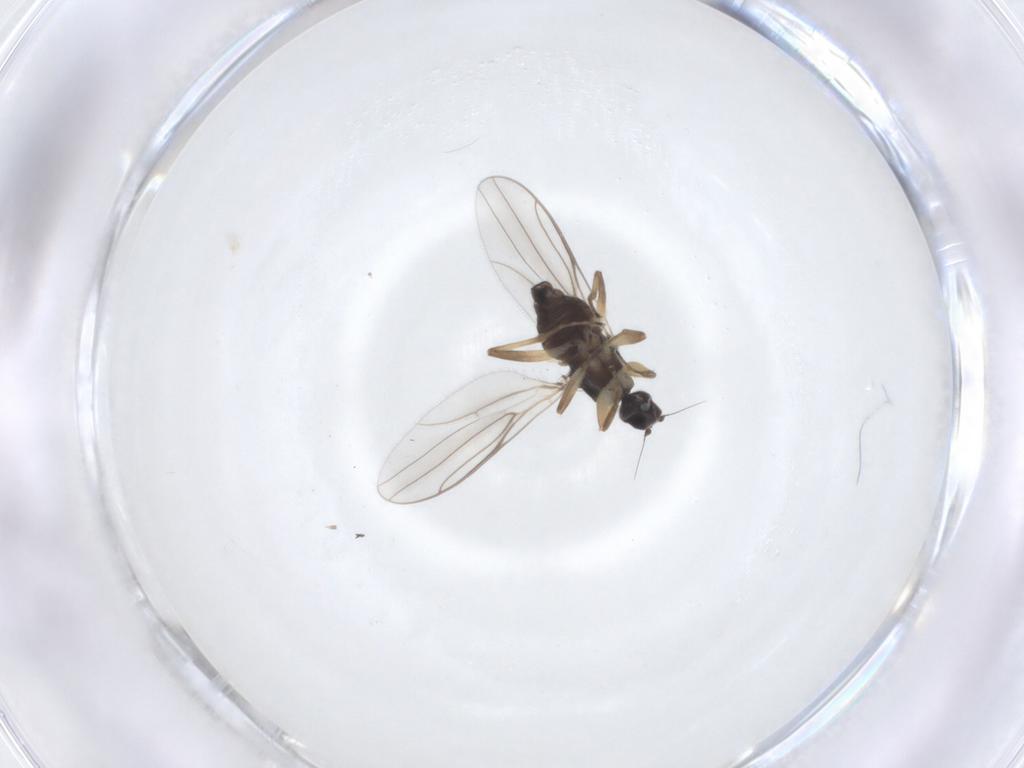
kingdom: Animalia
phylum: Arthropoda
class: Insecta
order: Diptera
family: Hybotidae
